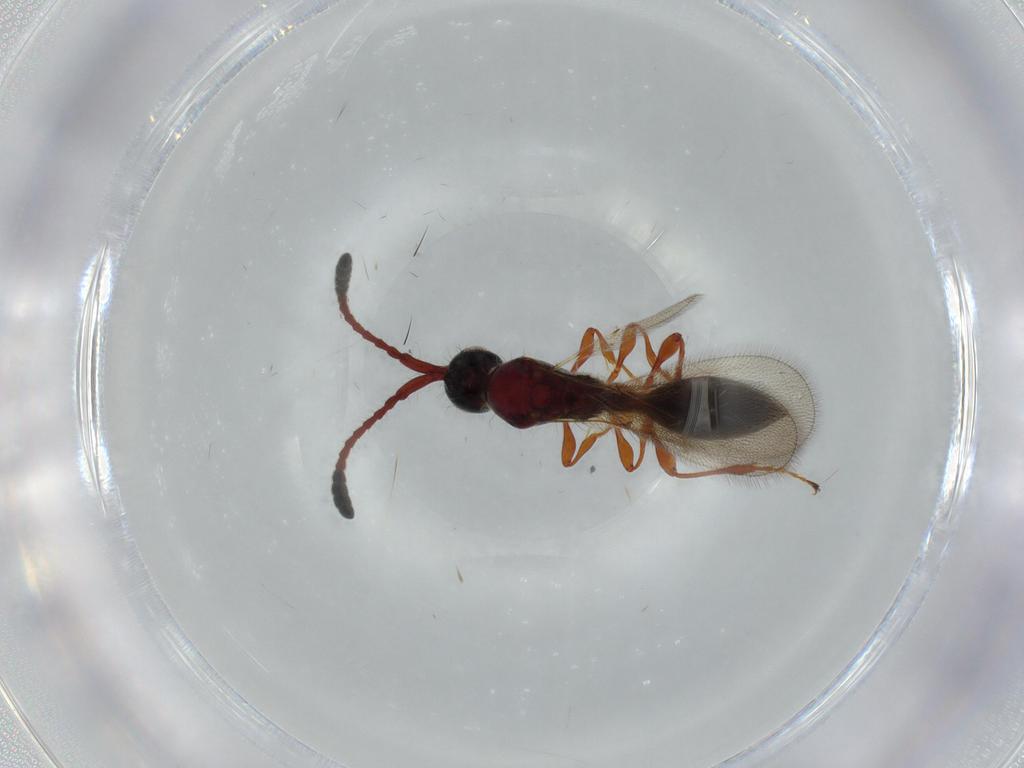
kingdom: Animalia
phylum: Arthropoda
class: Insecta
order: Hymenoptera
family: Diapriidae
